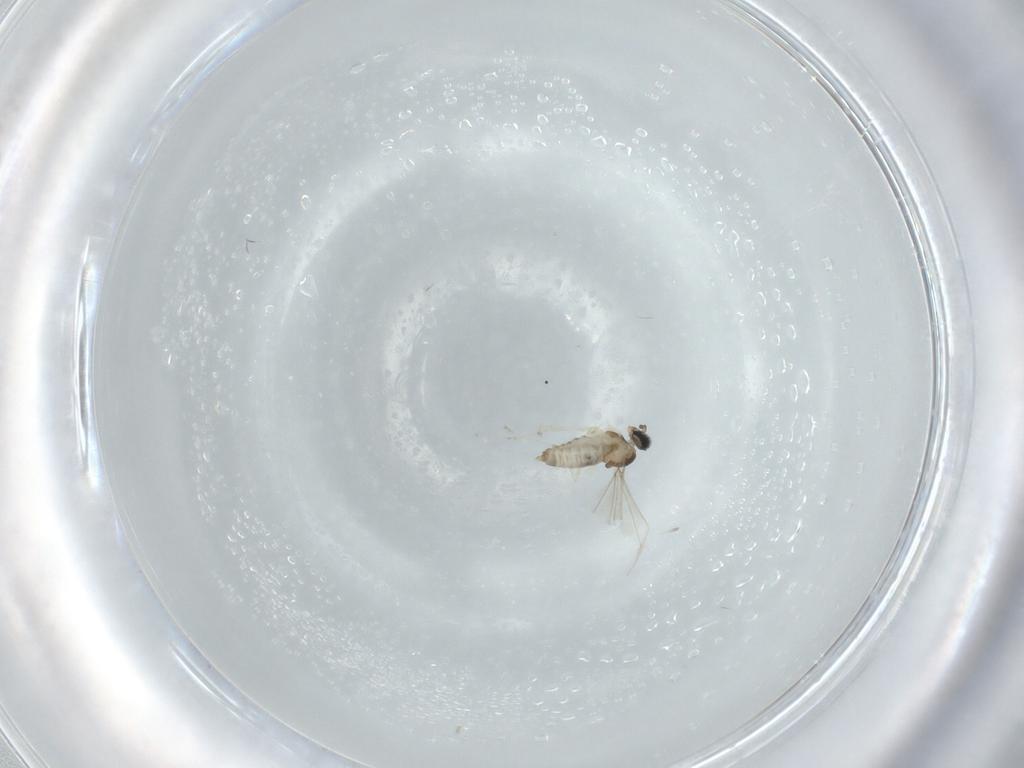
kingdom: Animalia
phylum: Arthropoda
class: Insecta
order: Diptera
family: Cecidomyiidae
